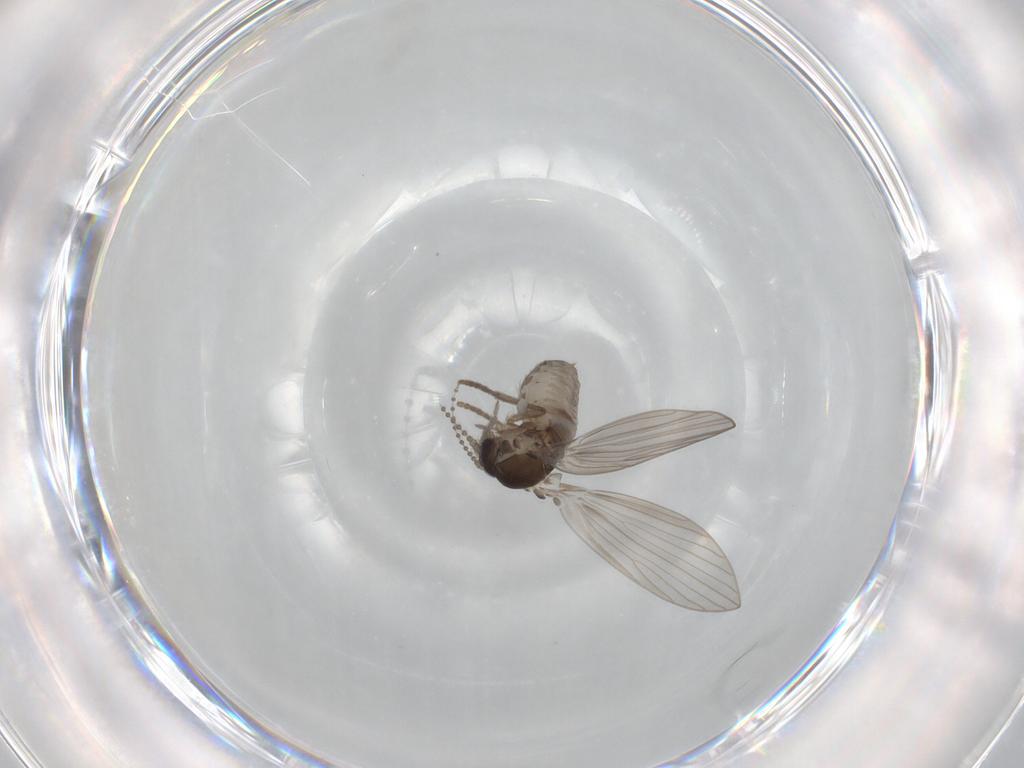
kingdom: Animalia
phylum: Arthropoda
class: Insecta
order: Diptera
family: Psychodidae
